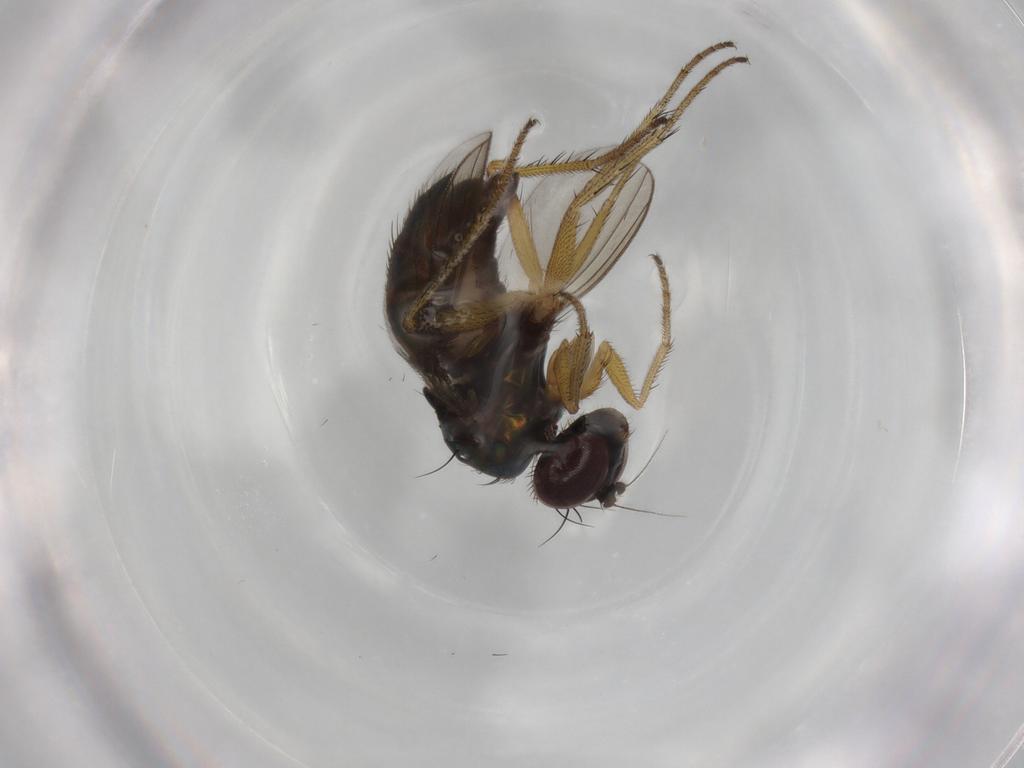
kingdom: Animalia
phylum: Arthropoda
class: Insecta
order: Diptera
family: Dolichopodidae
